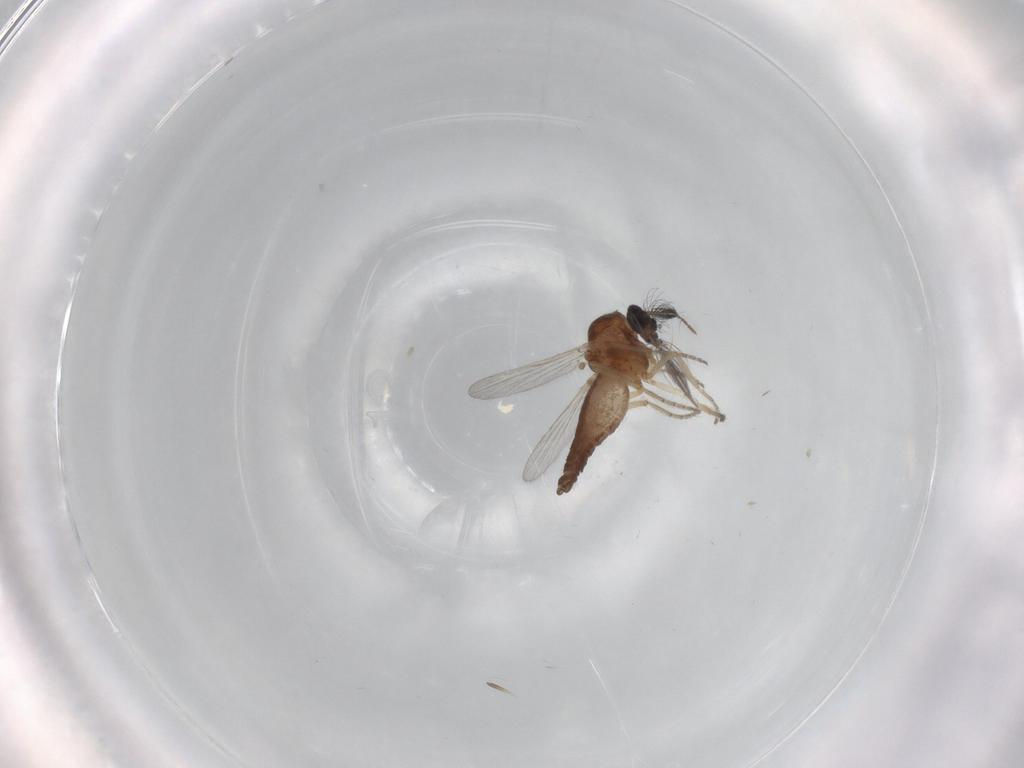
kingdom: Animalia
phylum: Arthropoda
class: Insecta
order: Diptera
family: Ceratopogonidae
